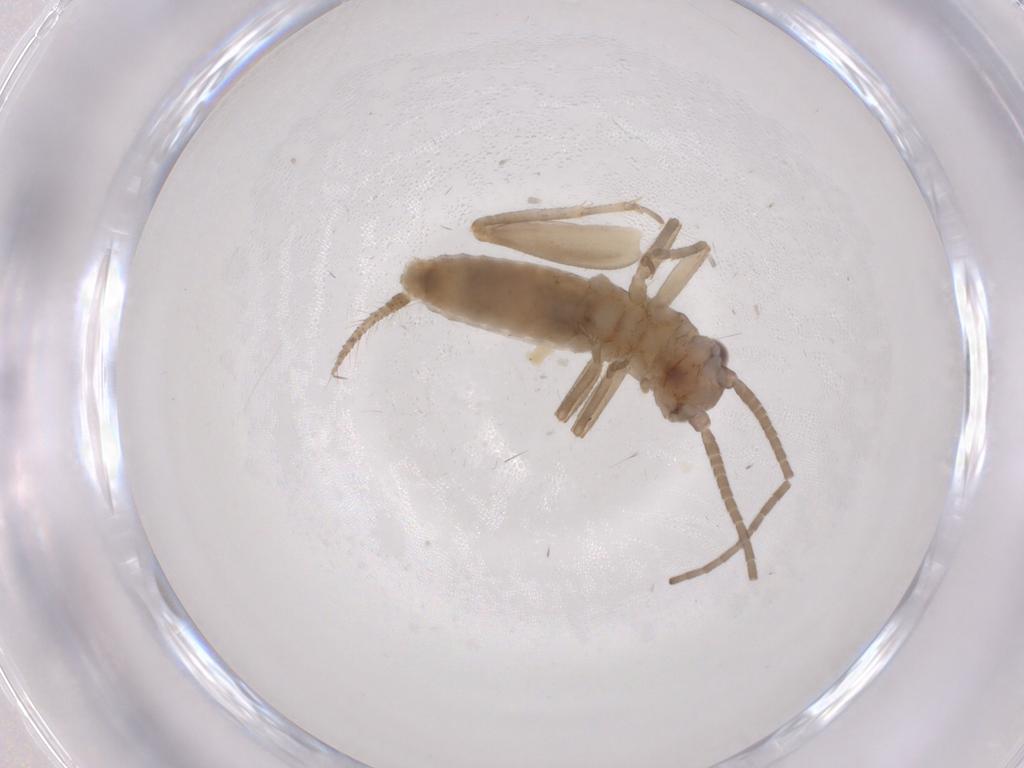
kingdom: Animalia
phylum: Arthropoda
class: Insecta
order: Orthoptera
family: Gryllidae
